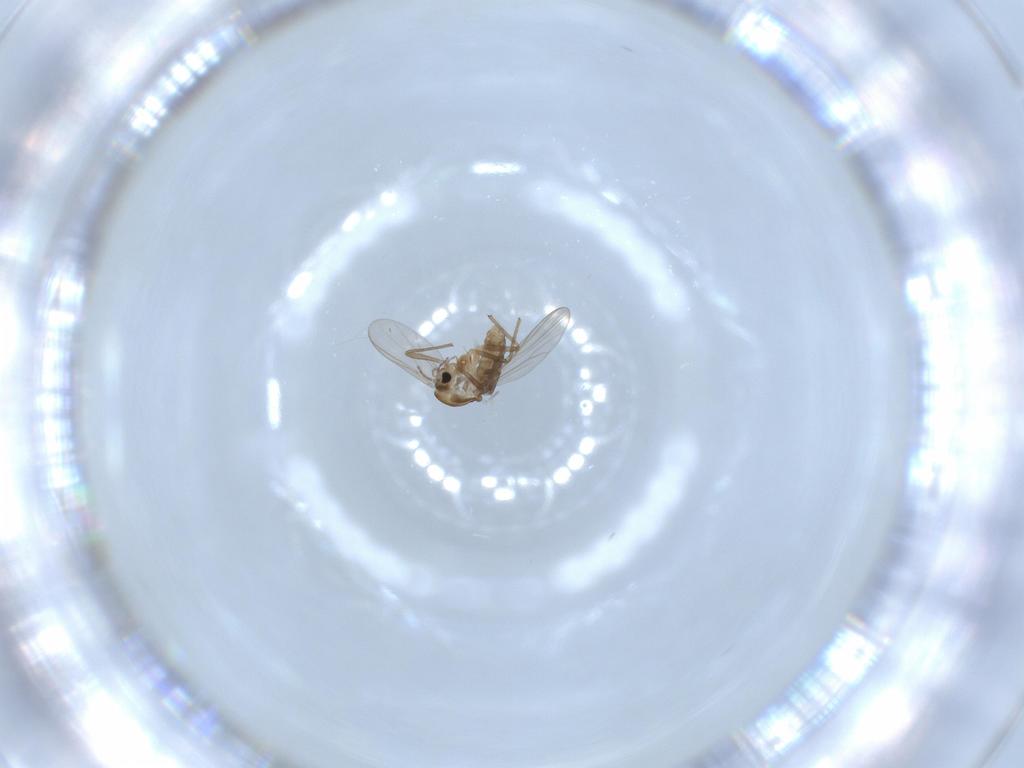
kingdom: Animalia
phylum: Arthropoda
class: Insecta
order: Diptera
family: Chironomidae
